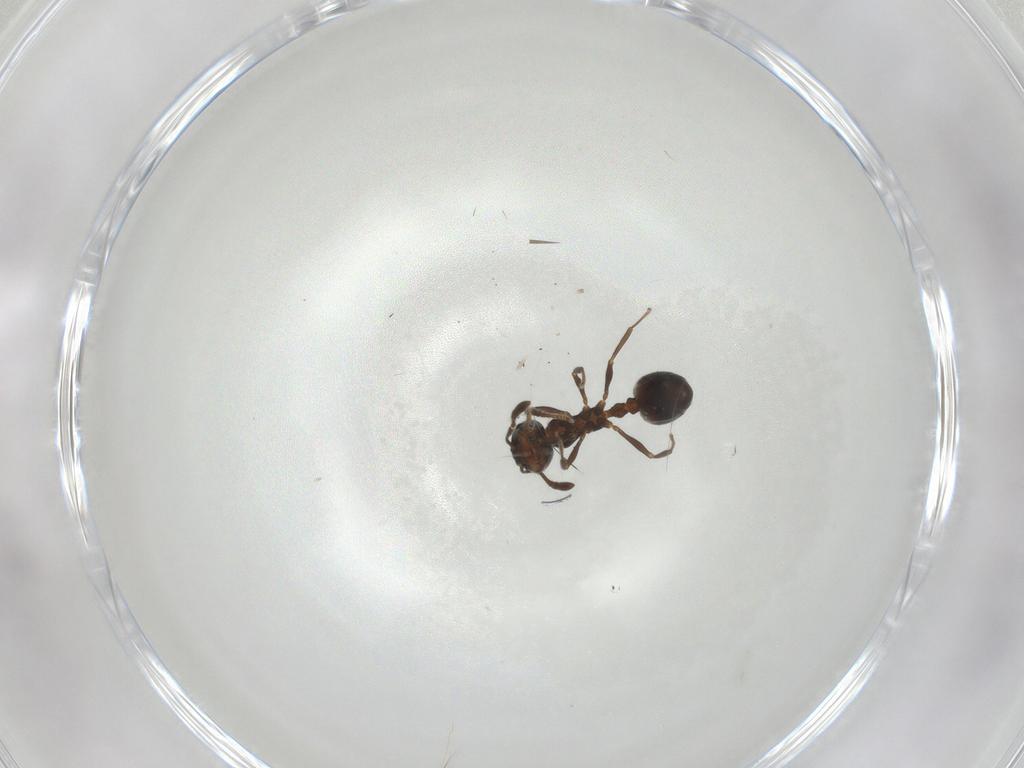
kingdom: Animalia
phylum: Arthropoda
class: Insecta
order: Hymenoptera
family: Formicidae
